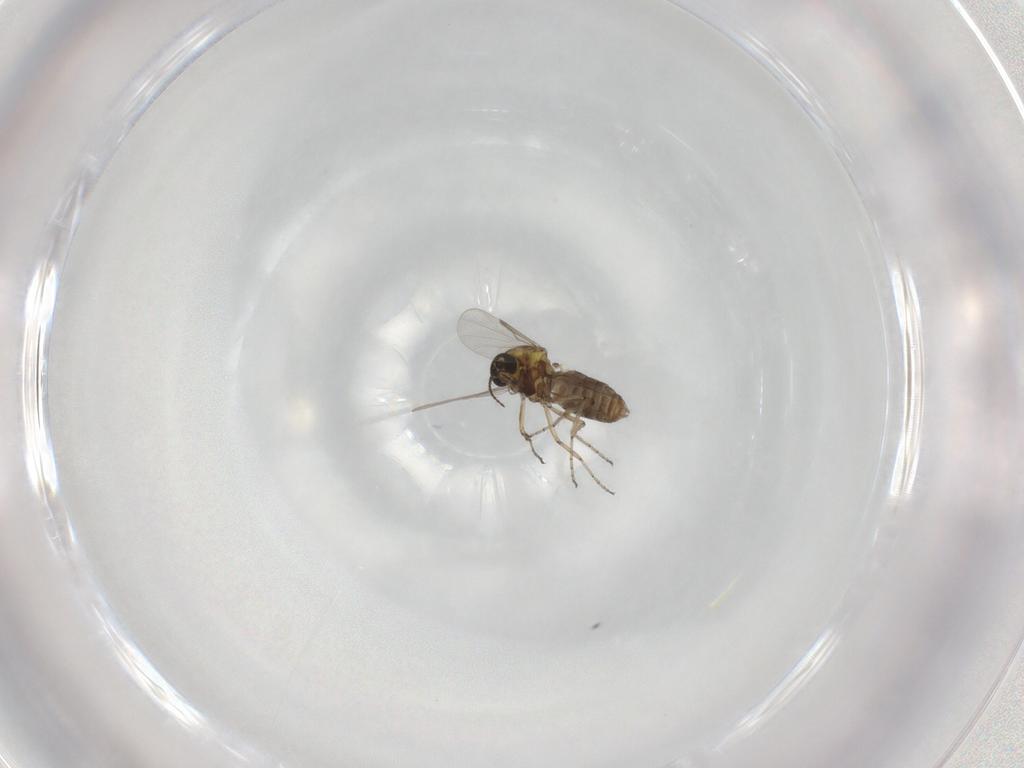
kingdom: Animalia
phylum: Arthropoda
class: Insecta
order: Diptera
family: Ceratopogonidae
